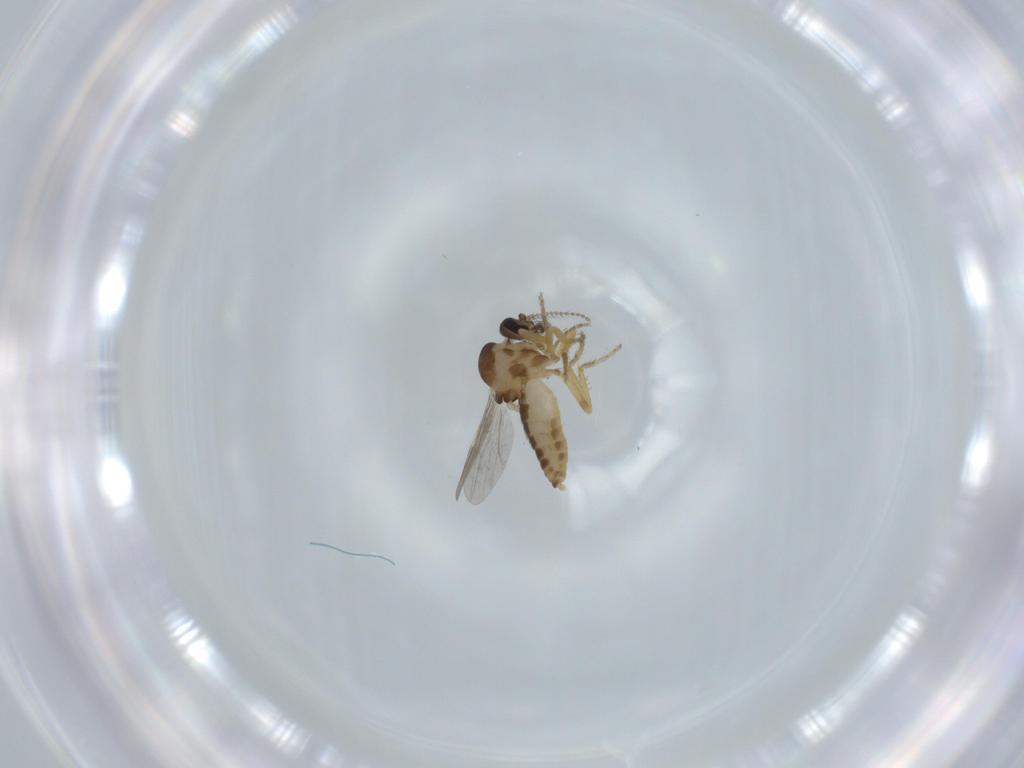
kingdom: Animalia
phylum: Arthropoda
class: Insecta
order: Diptera
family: Ceratopogonidae
